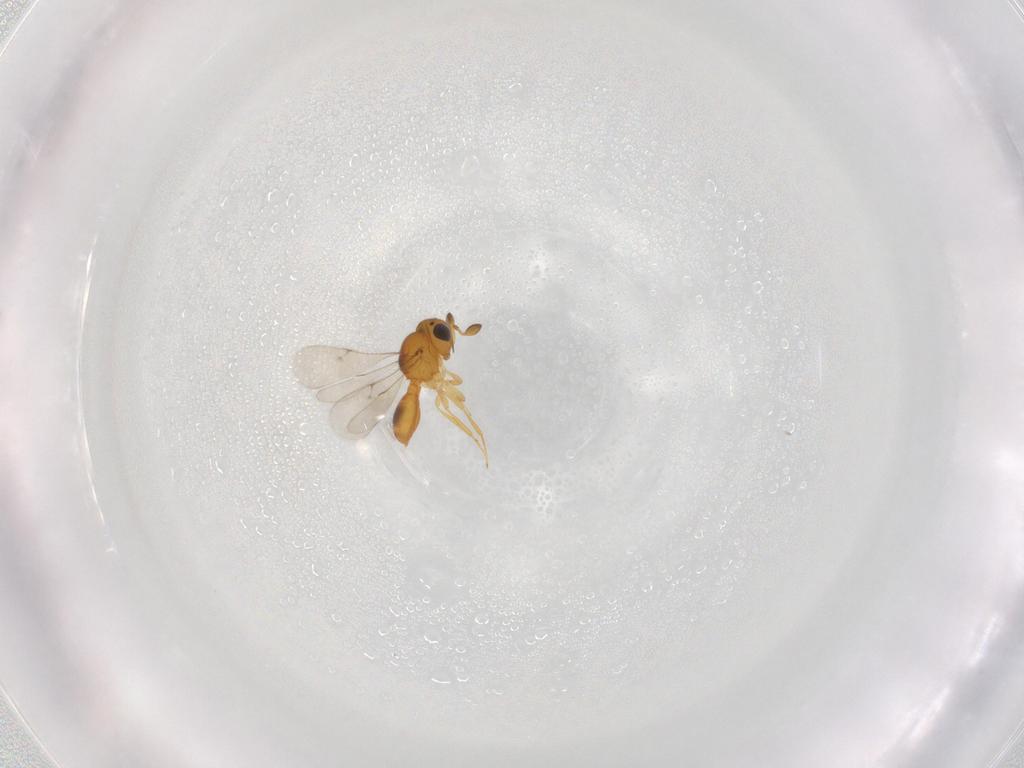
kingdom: Animalia
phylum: Arthropoda
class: Insecta
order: Hymenoptera
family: Scelionidae
